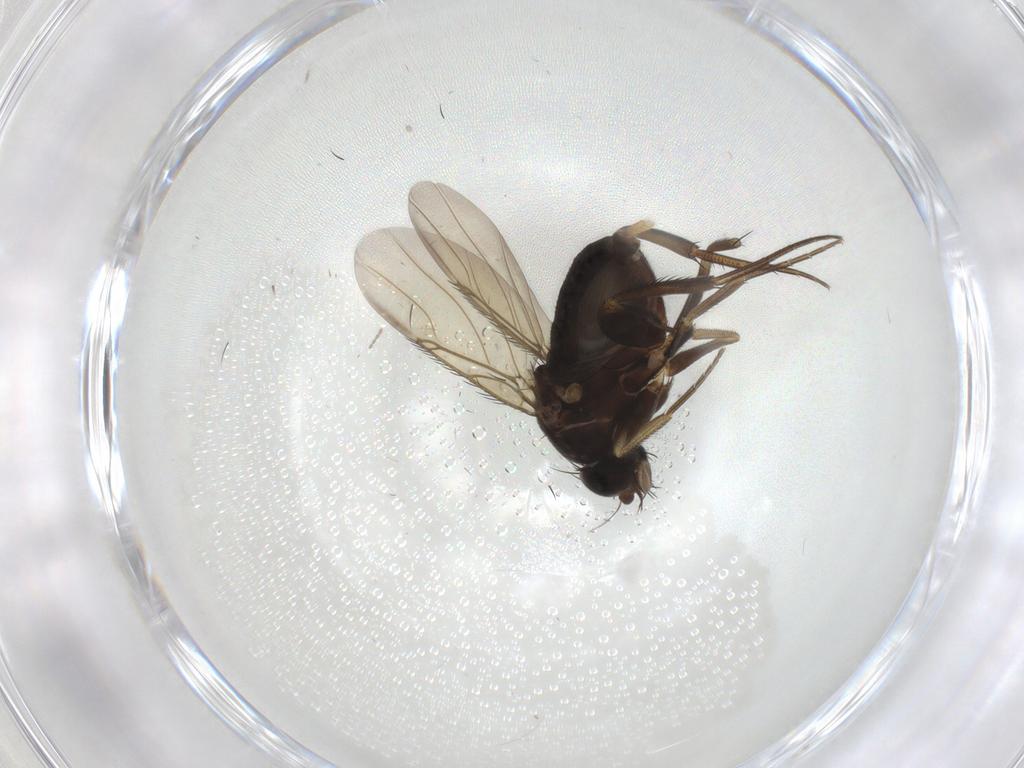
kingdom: Animalia
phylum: Arthropoda
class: Insecta
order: Diptera
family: Phoridae
